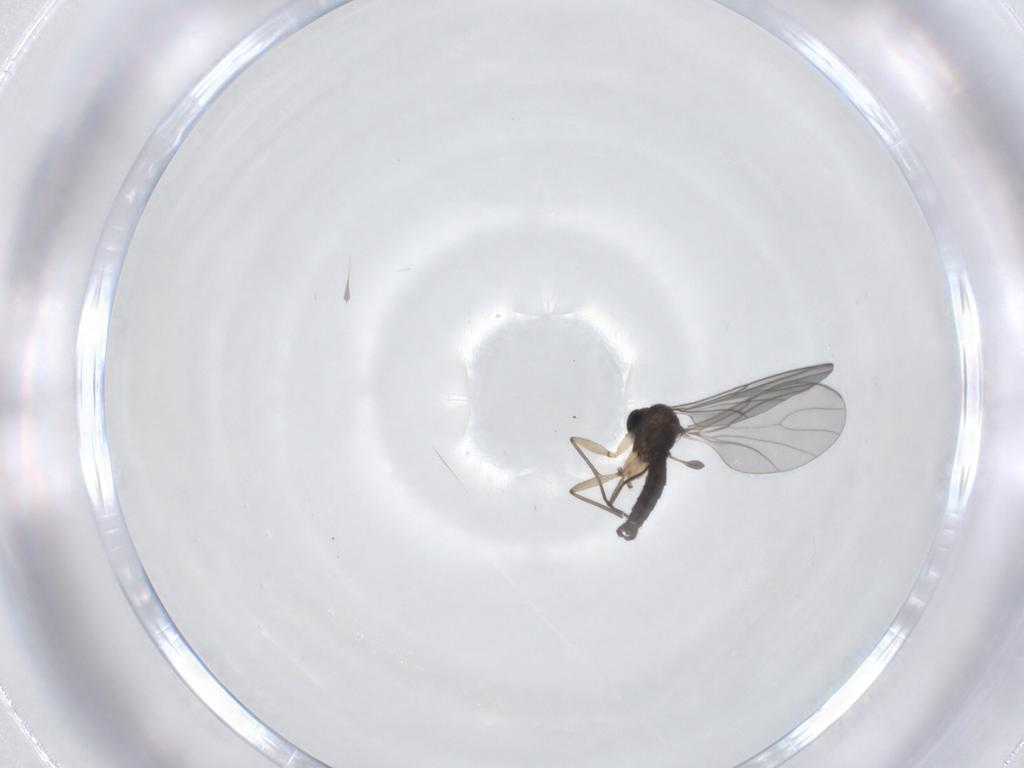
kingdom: Animalia
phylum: Arthropoda
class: Insecta
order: Diptera
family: Sciaridae
